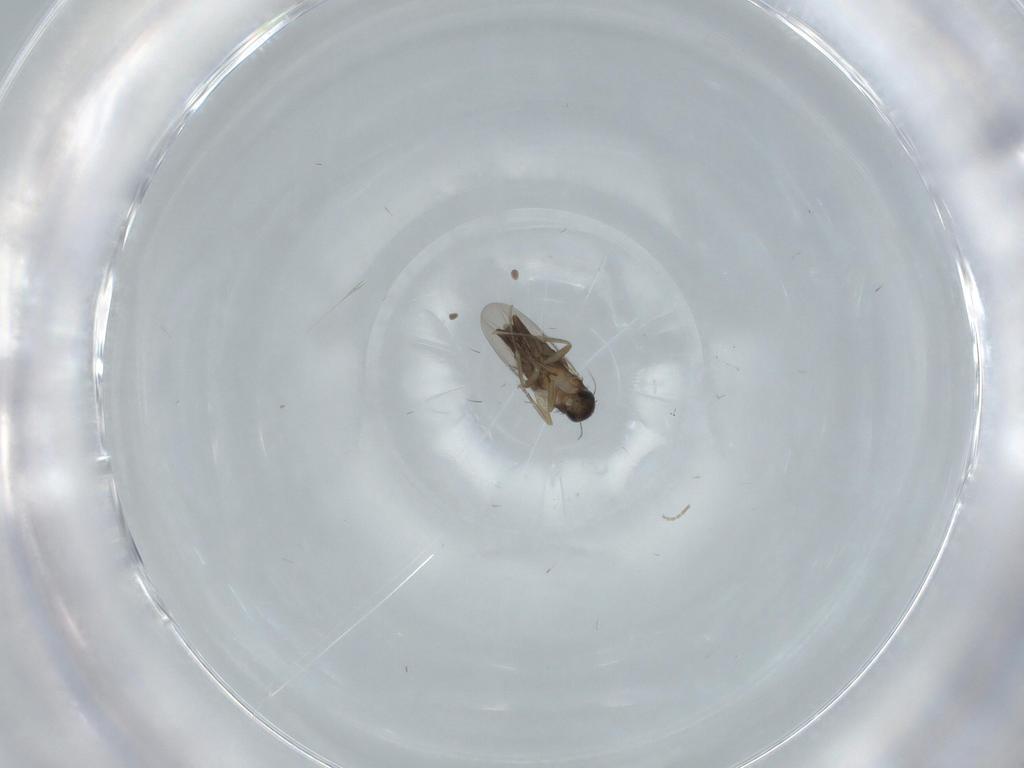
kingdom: Animalia
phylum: Arthropoda
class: Insecta
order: Diptera
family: Phoridae
